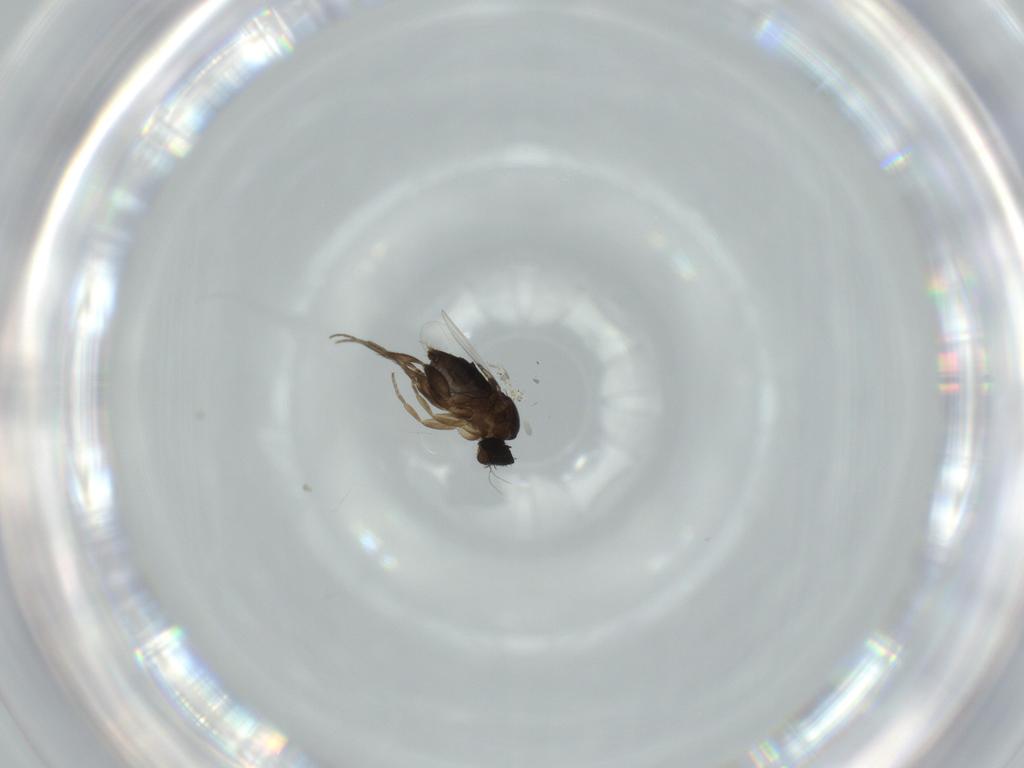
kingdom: Animalia
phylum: Arthropoda
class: Insecta
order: Diptera
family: Phoridae
